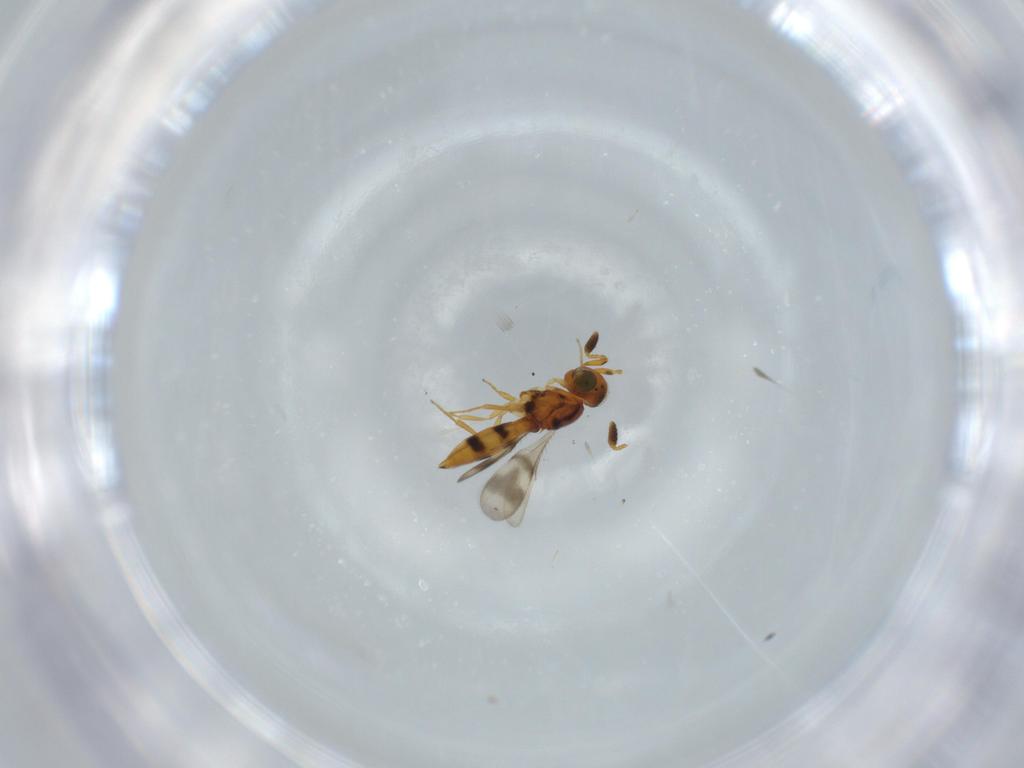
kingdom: Animalia
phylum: Arthropoda
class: Insecta
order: Hymenoptera
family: Scelionidae
